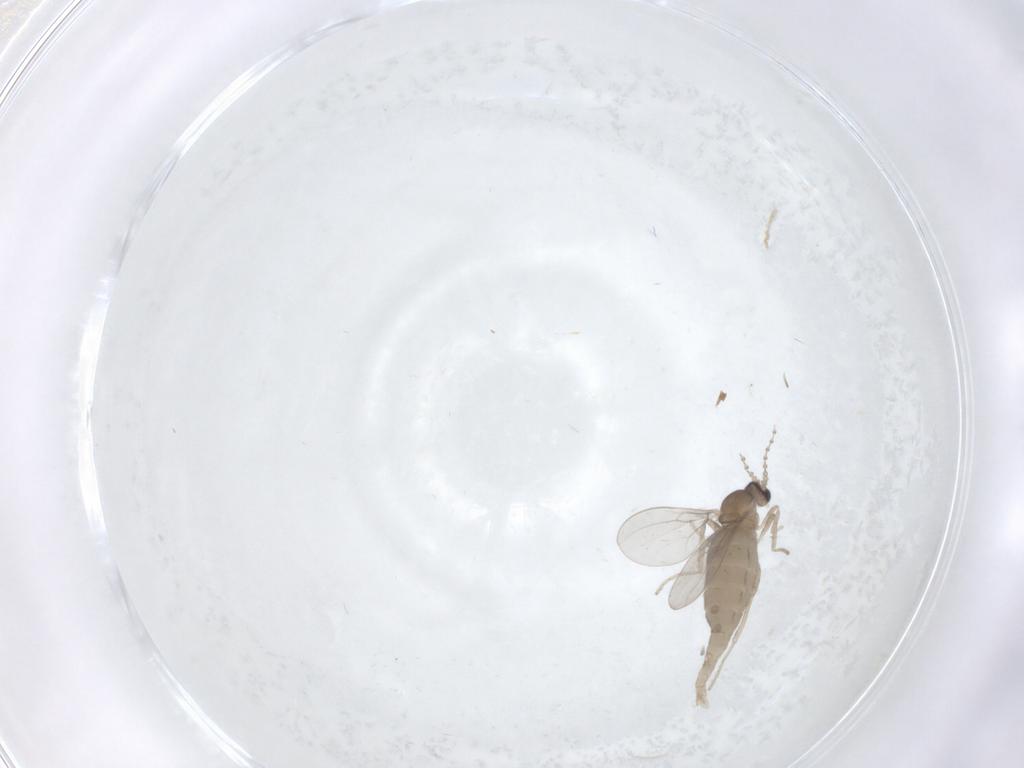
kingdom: Animalia
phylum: Arthropoda
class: Insecta
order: Diptera
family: Cecidomyiidae
